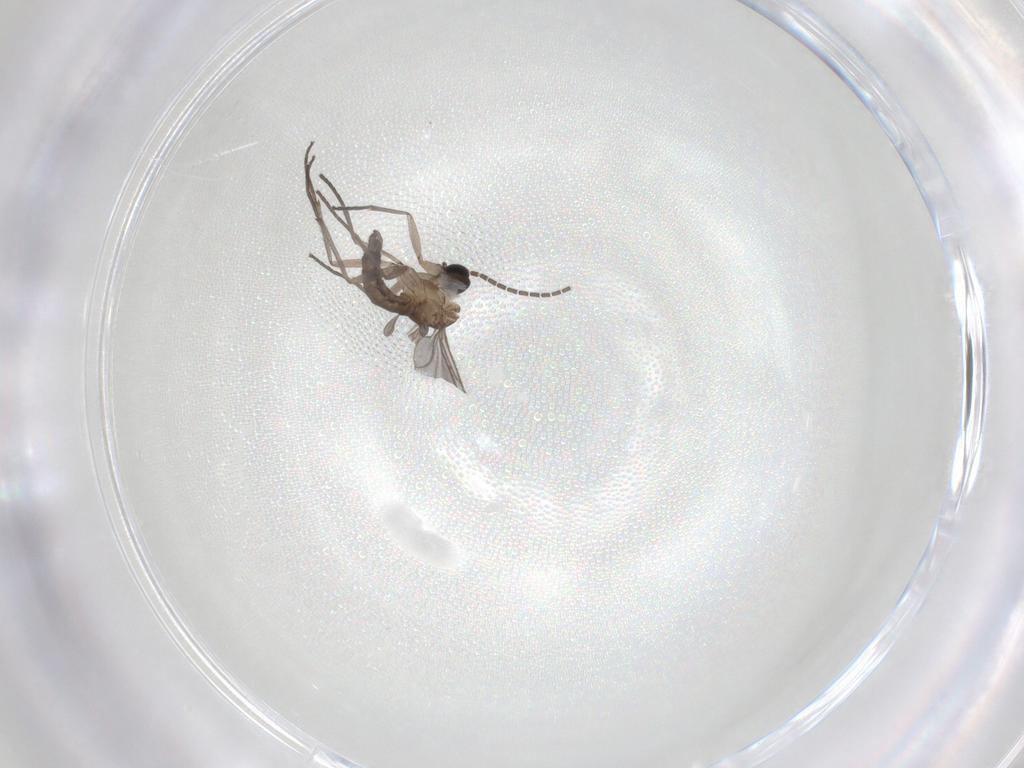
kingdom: Animalia
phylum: Arthropoda
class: Insecta
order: Diptera
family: Sciaridae
